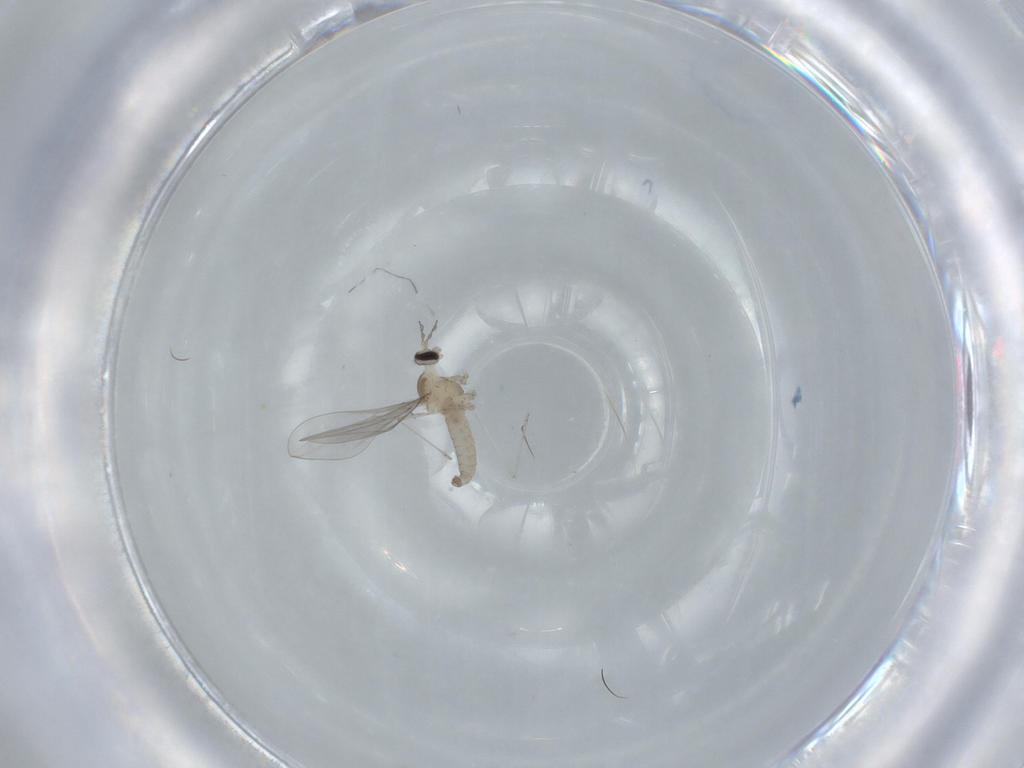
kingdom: Animalia
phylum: Arthropoda
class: Insecta
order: Diptera
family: Cecidomyiidae
